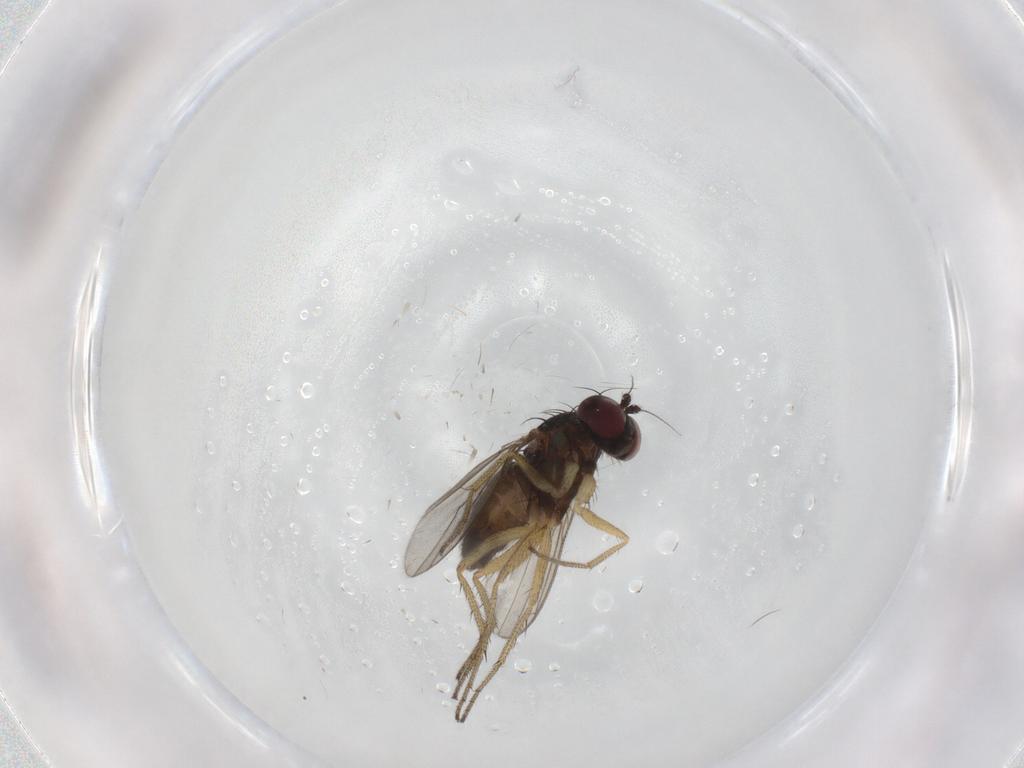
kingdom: Animalia
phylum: Arthropoda
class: Insecta
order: Diptera
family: Dolichopodidae
